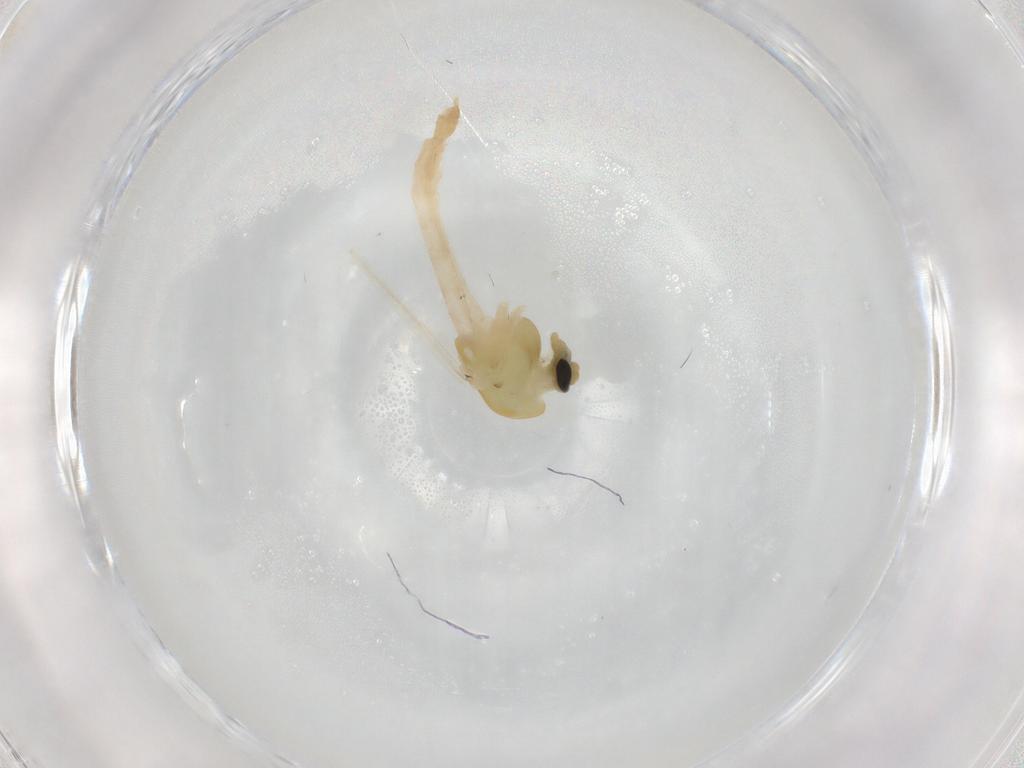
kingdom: Animalia
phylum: Arthropoda
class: Insecta
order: Diptera
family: Chironomidae
